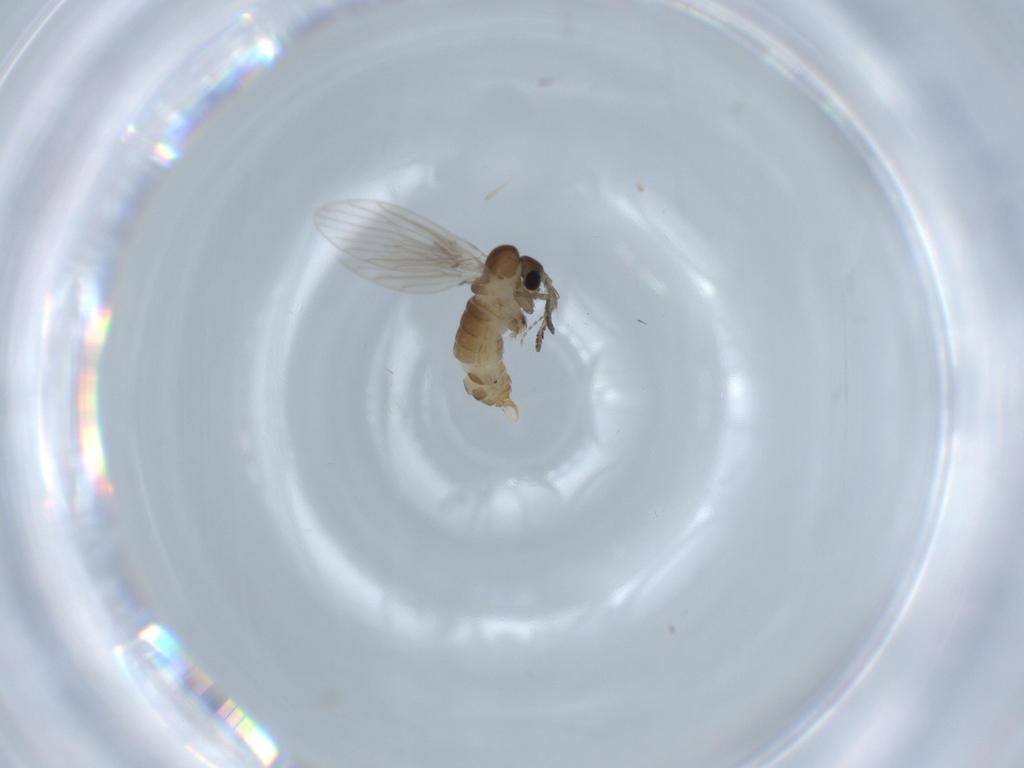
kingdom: Animalia
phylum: Arthropoda
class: Insecta
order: Diptera
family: Psychodidae
